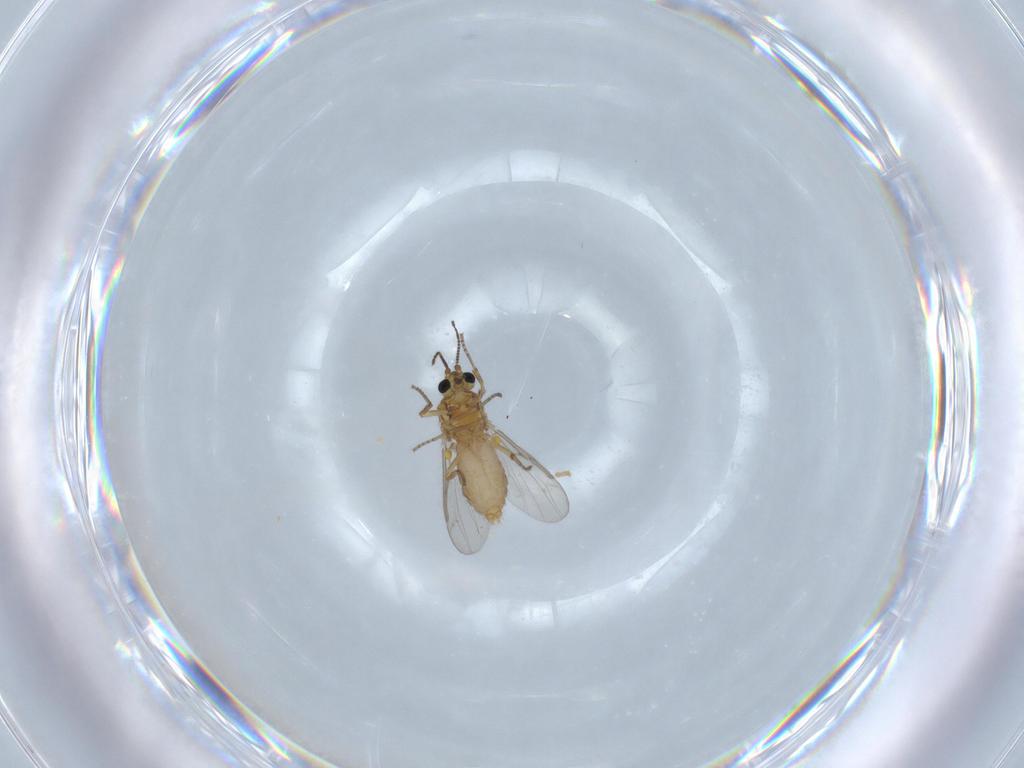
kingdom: Animalia
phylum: Arthropoda
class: Insecta
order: Diptera
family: Ceratopogonidae
